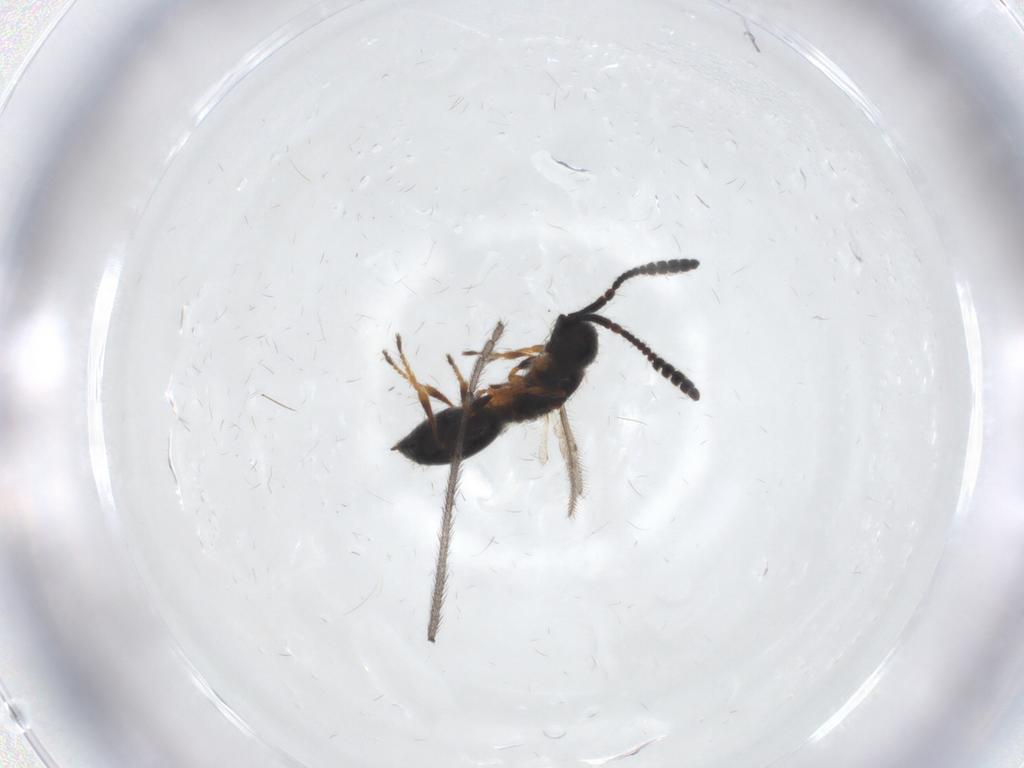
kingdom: Animalia
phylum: Arthropoda
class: Insecta
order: Hymenoptera
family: Diapriidae
